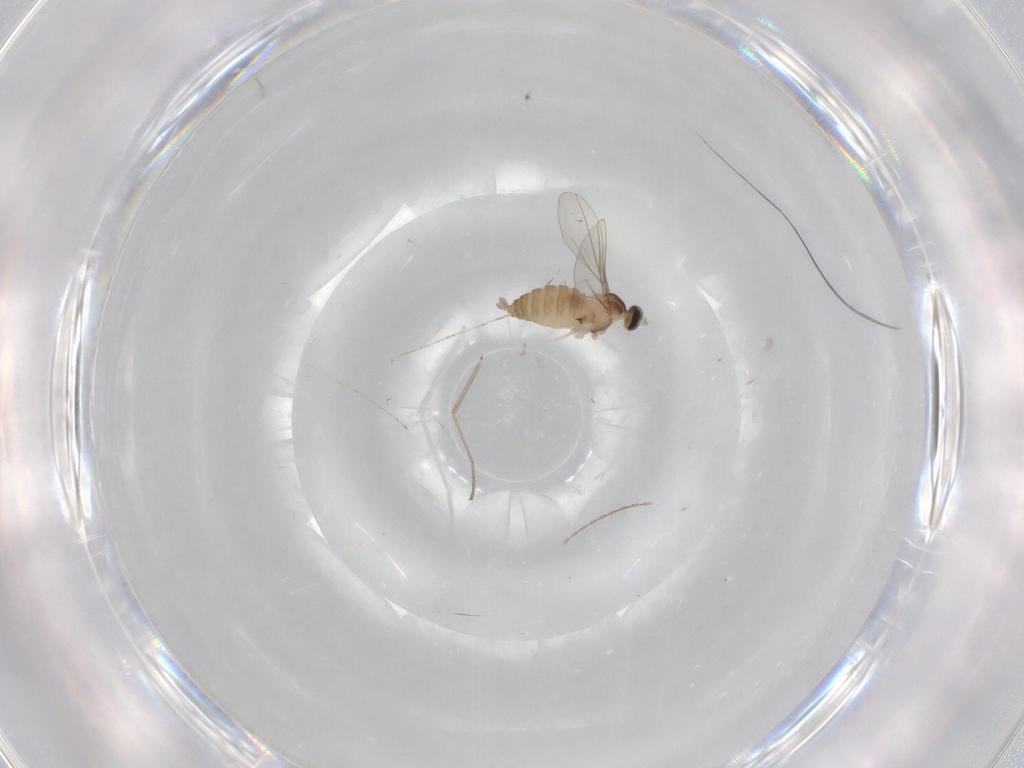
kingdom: Animalia
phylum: Arthropoda
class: Insecta
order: Diptera
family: Cecidomyiidae
